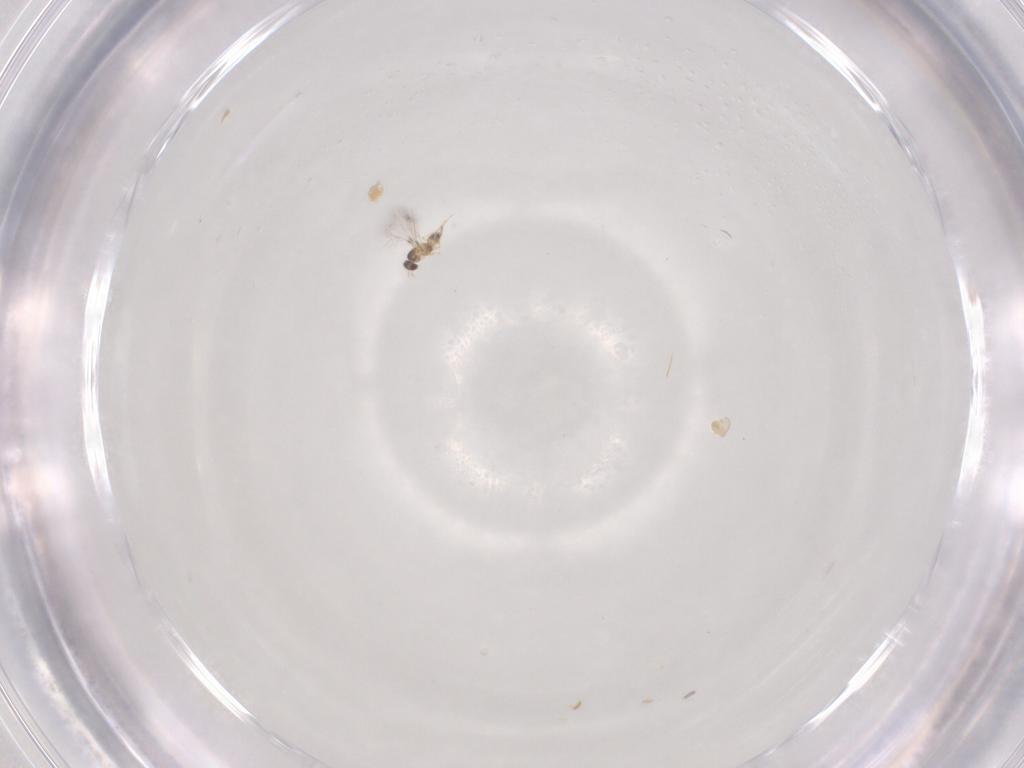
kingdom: Animalia
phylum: Arthropoda
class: Insecta
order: Hymenoptera
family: Mymaridae
